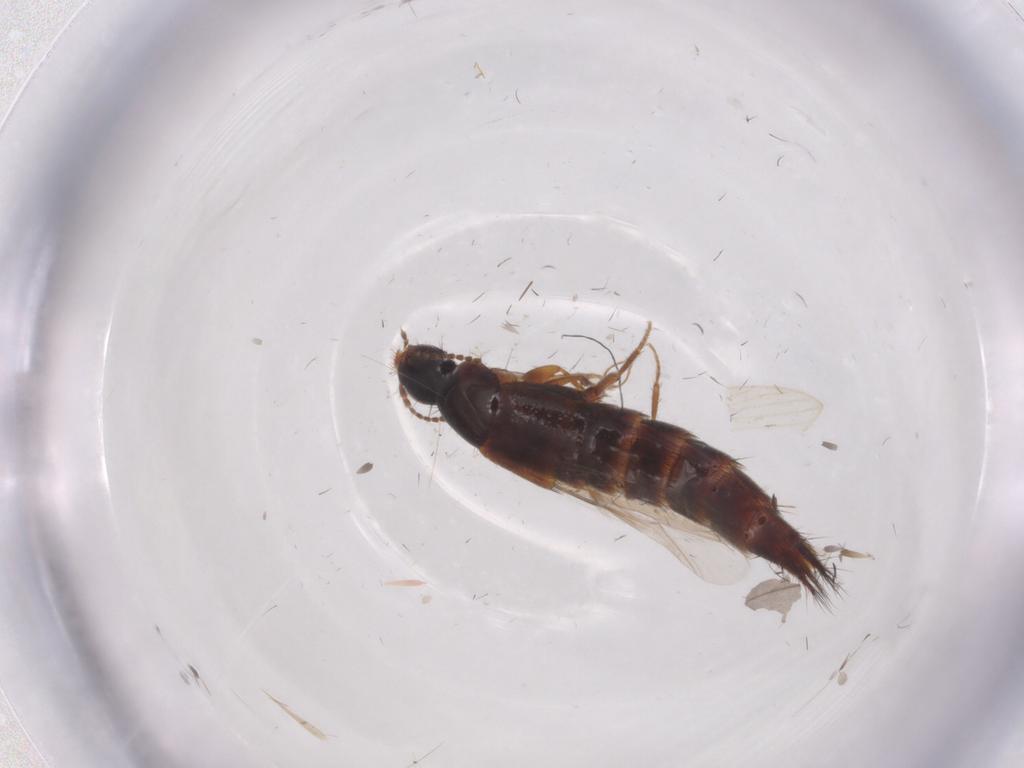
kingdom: Animalia
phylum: Arthropoda
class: Insecta
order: Coleoptera
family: Ptilodactylidae
